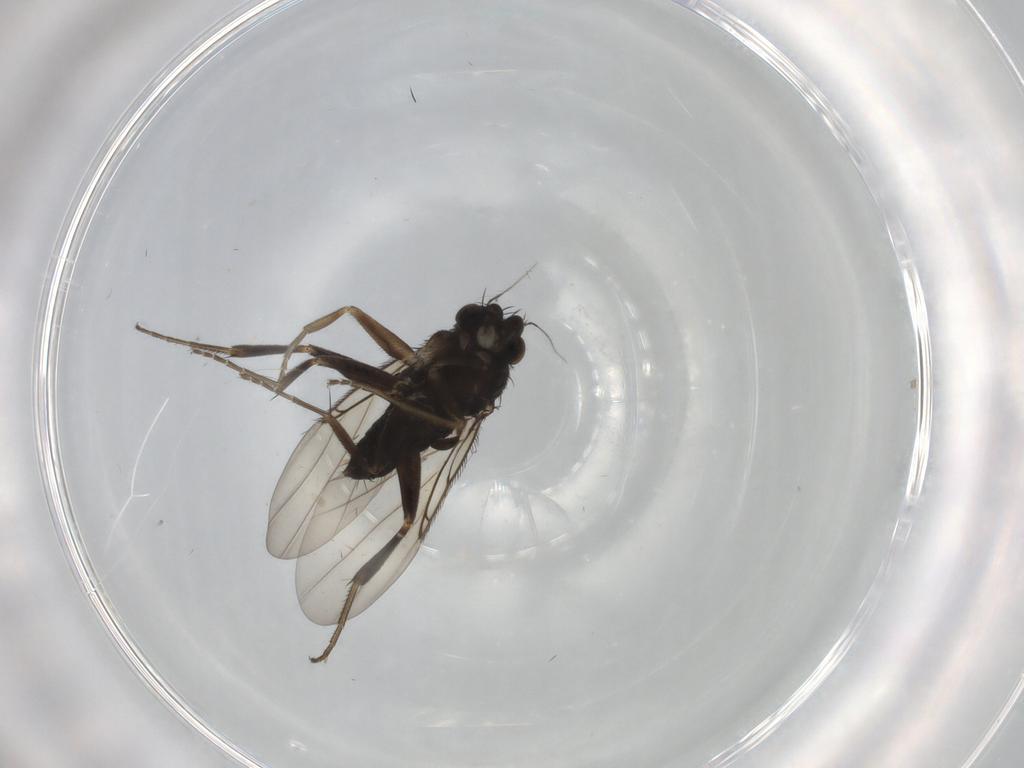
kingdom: Animalia
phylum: Arthropoda
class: Insecta
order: Diptera
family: Phoridae
